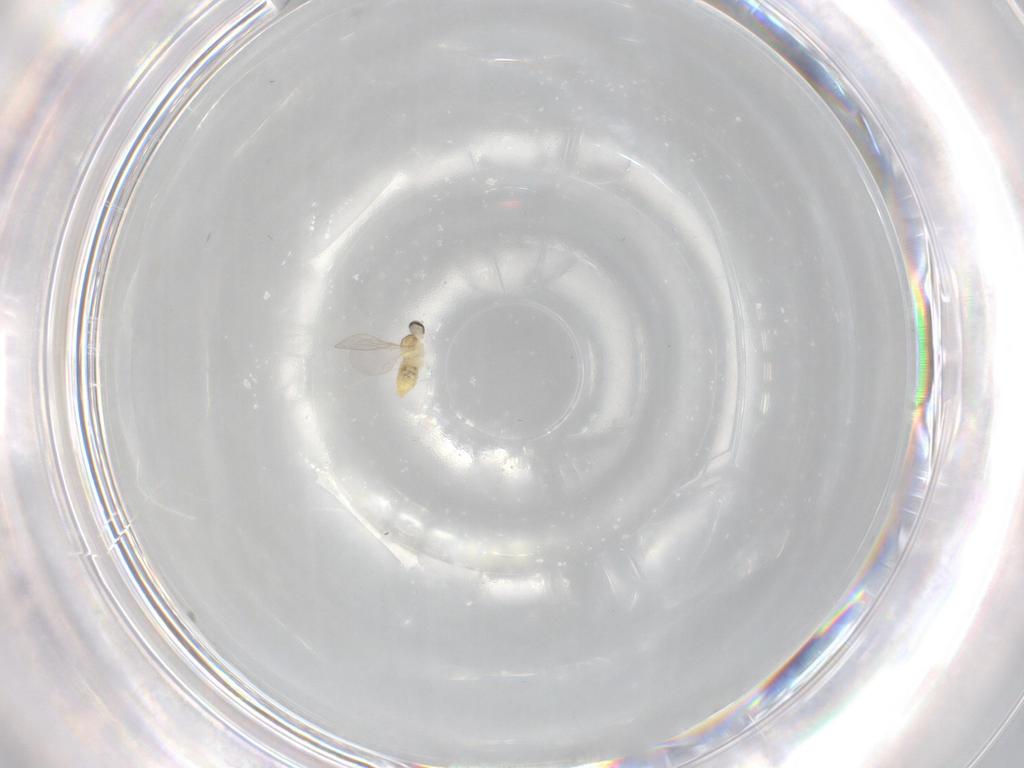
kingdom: Animalia
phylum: Arthropoda
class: Insecta
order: Diptera
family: Cecidomyiidae
